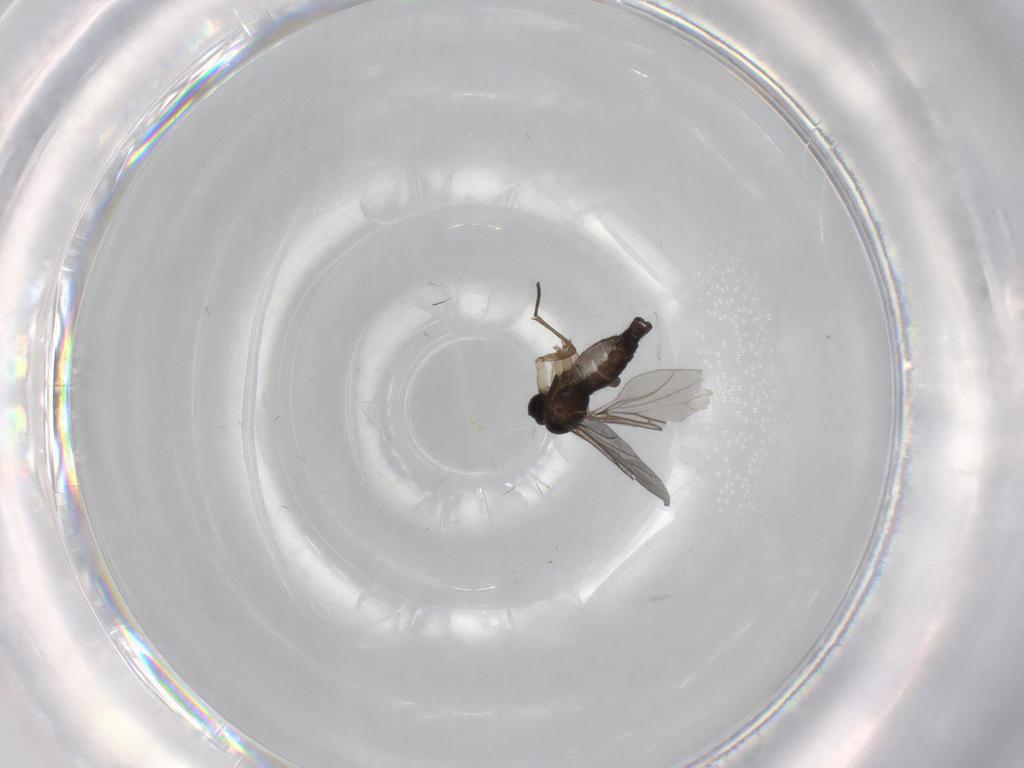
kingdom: Animalia
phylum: Arthropoda
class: Insecta
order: Diptera
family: Sciaridae
